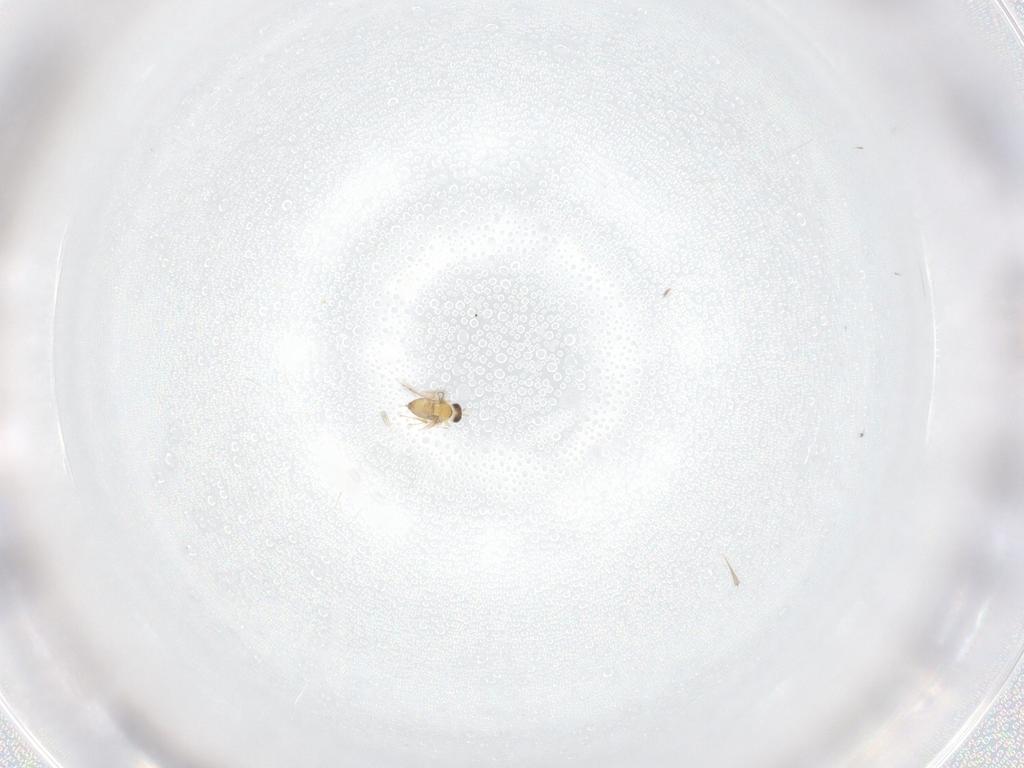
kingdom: Animalia
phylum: Arthropoda
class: Insecta
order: Hymenoptera
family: Mymaridae
